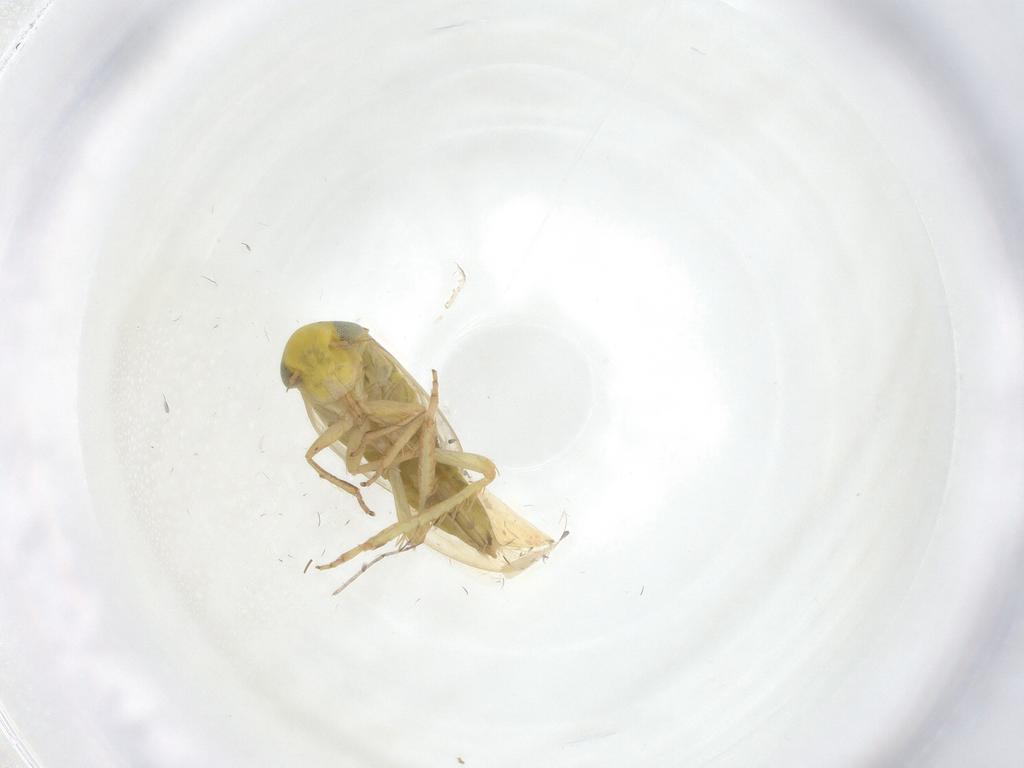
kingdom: Animalia
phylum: Arthropoda
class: Insecta
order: Hemiptera
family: Cicadellidae
